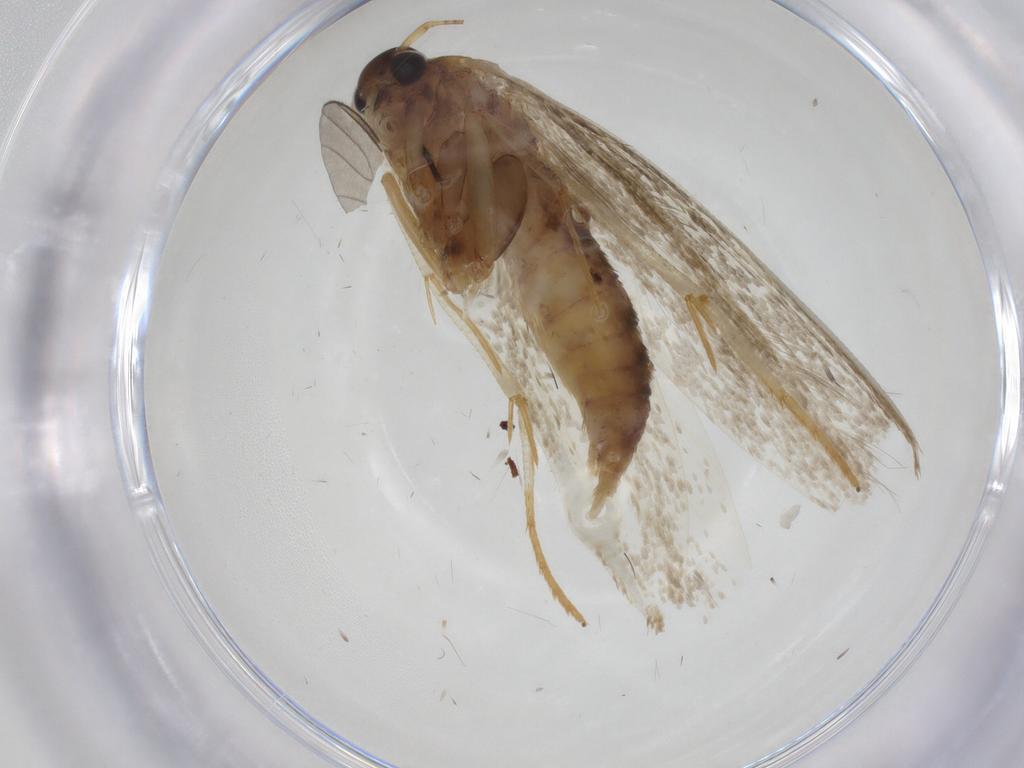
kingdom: Animalia
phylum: Arthropoda
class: Insecta
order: Lepidoptera
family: Blastobasidae
